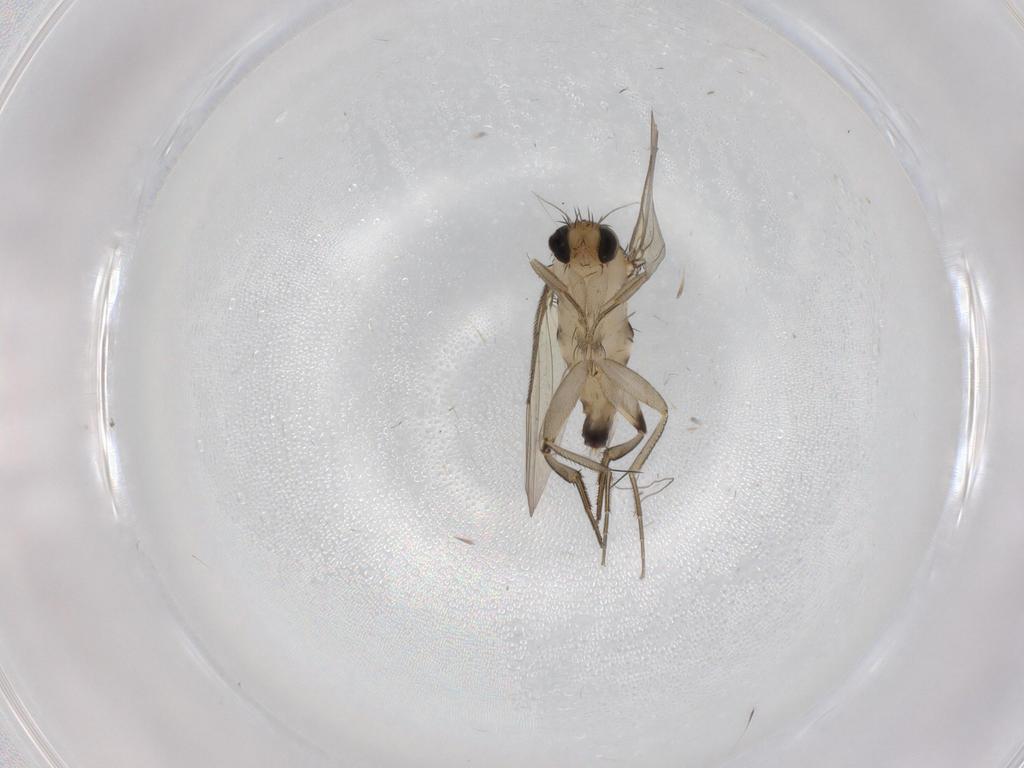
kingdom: Animalia
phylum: Arthropoda
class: Insecta
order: Diptera
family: Phoridae
